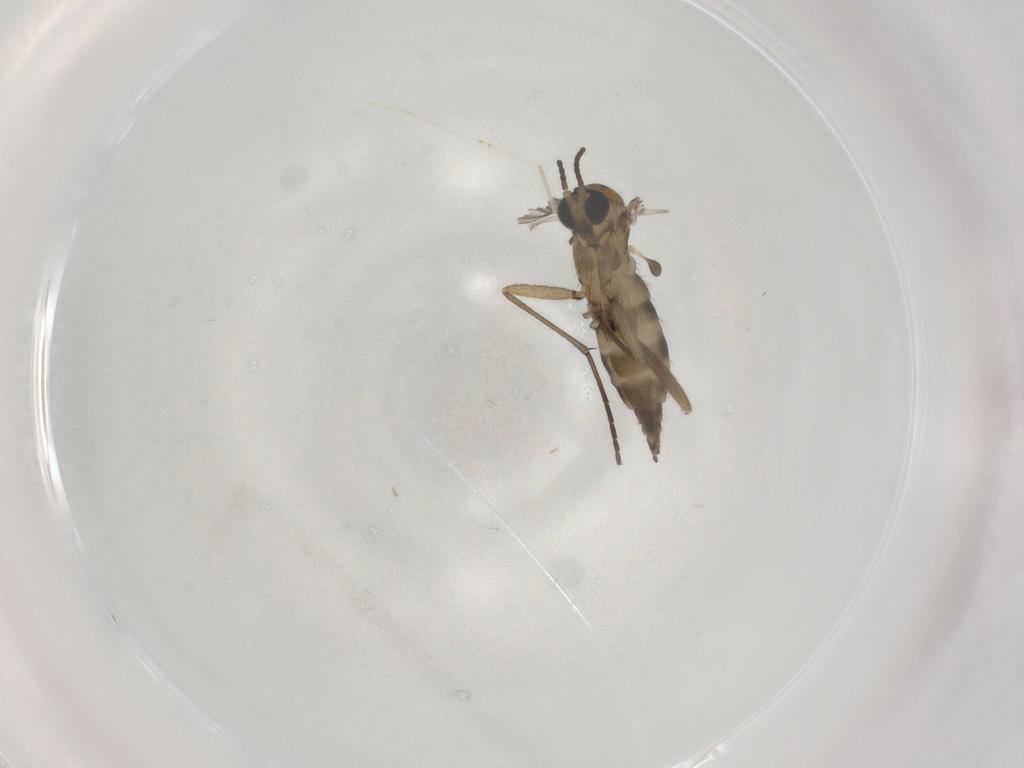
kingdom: Animalia
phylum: Arthropoda
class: Insecta
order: Diptera
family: Sciaridae
